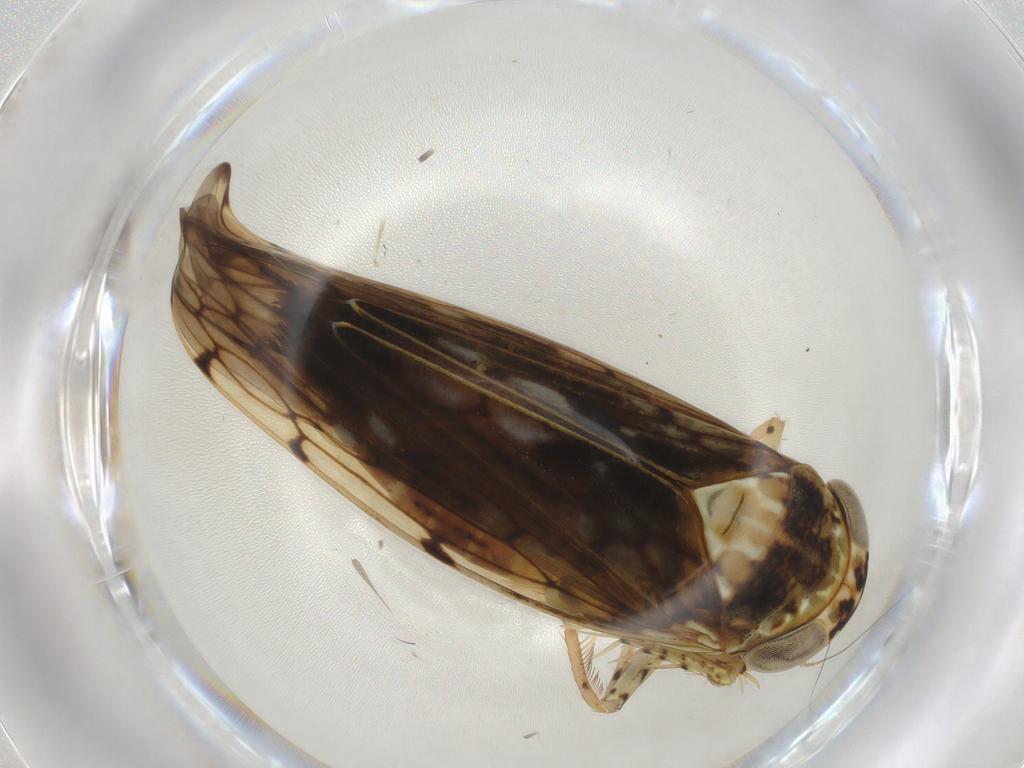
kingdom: Animalia
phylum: Arthropoda
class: Insecta
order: Hemiptera
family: Cicadellidae
